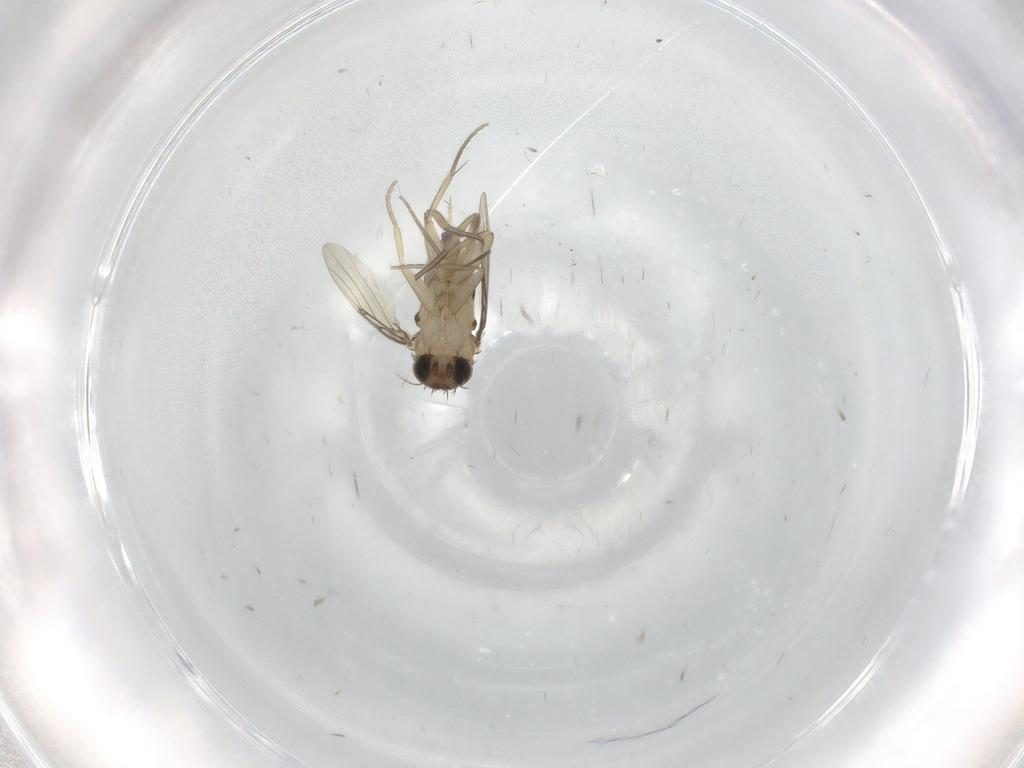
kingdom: Animalia
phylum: Arthropoda
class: Insecta
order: Diptera
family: Phoridae
